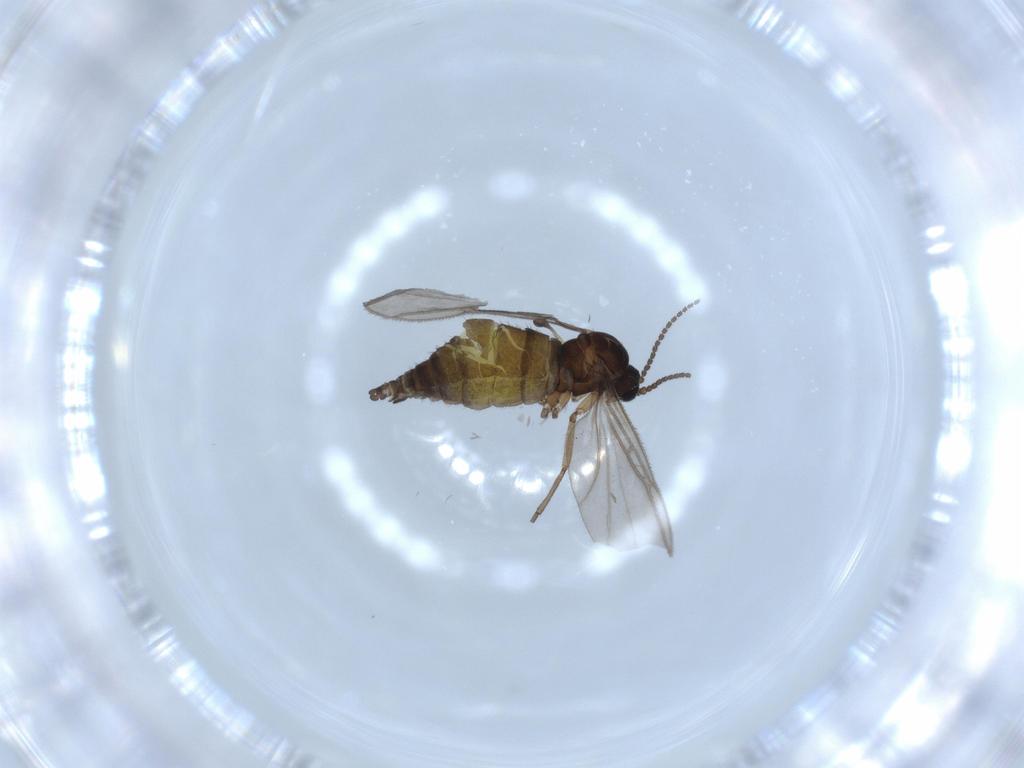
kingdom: Animalia
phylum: Arthropoda
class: Insecta
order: Diptera
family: Sciaridae
